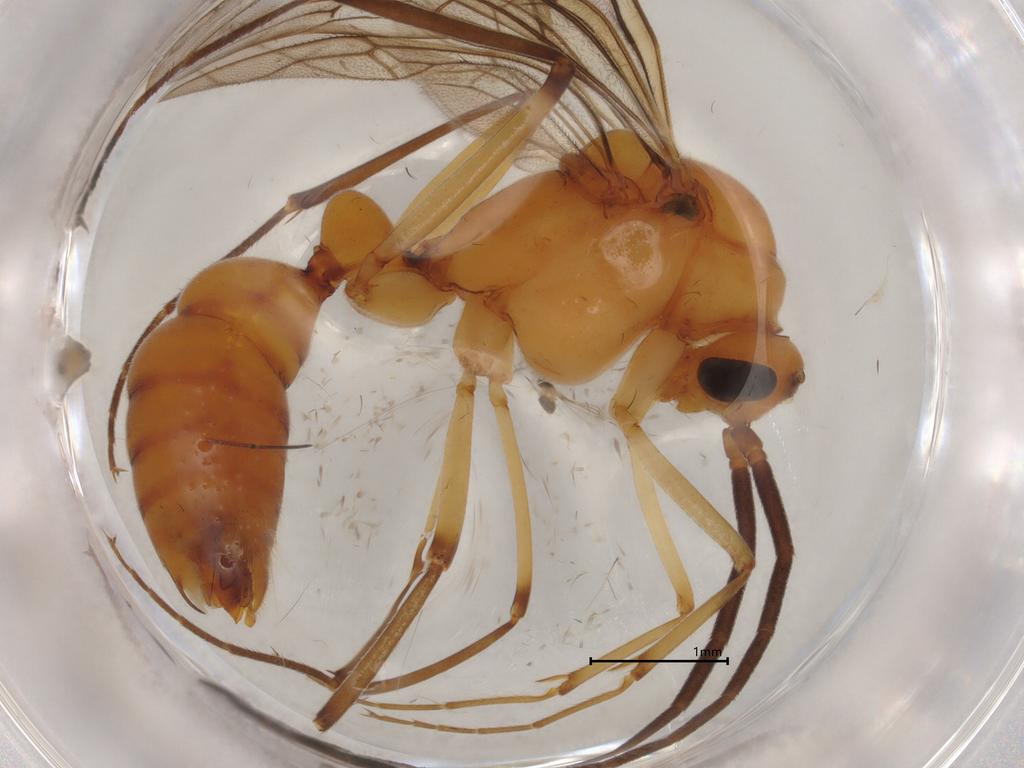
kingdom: Animalia
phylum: Arthropoda
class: Insecta
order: Hymenoptera
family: Formicidae
